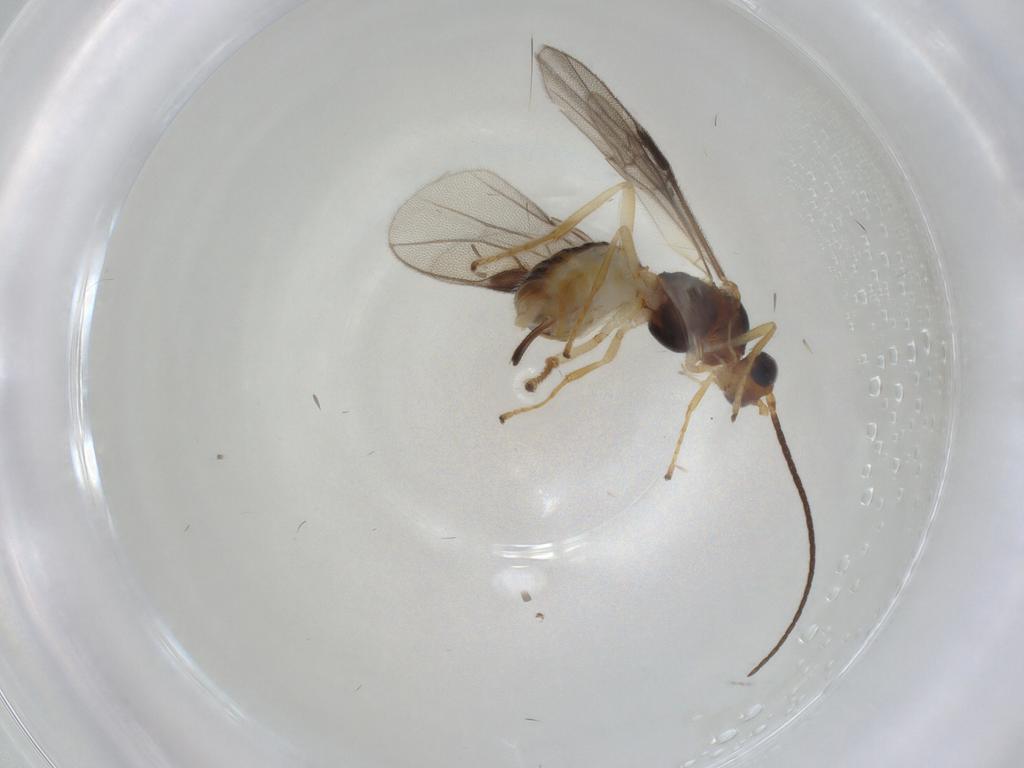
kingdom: Animalia
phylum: Arthropoda
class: Insecta
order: Hymenoptera
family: Braconidae
